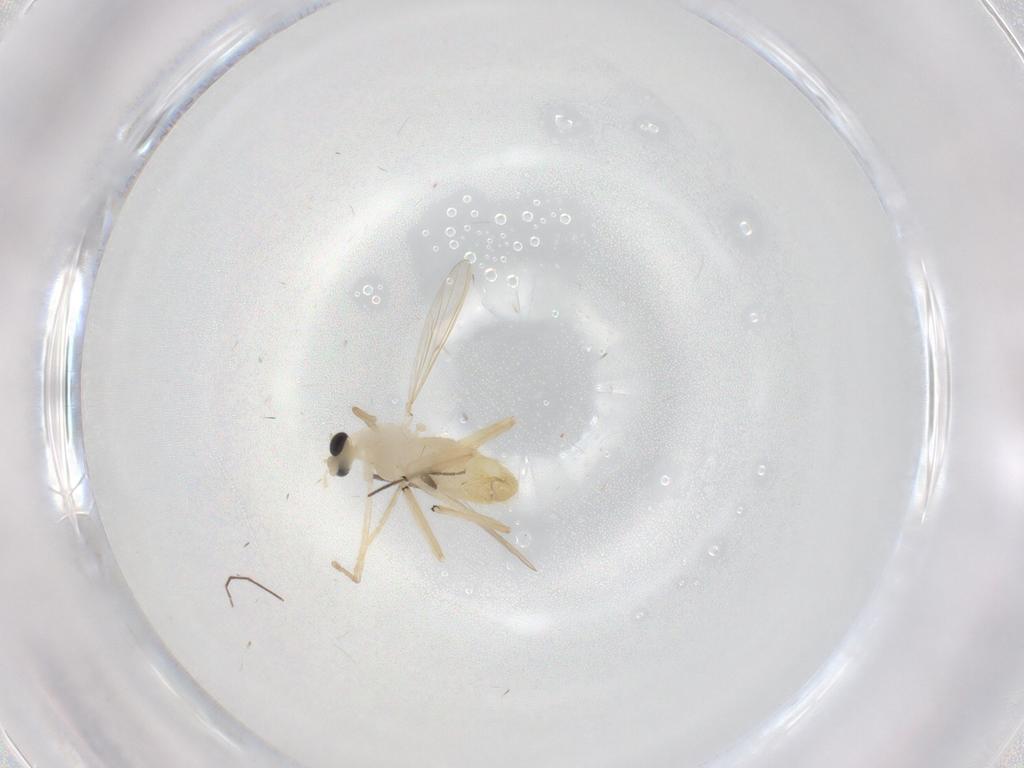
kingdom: Animalia
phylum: Arthropoda
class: Insecta
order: Diptera
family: Chironomidae
